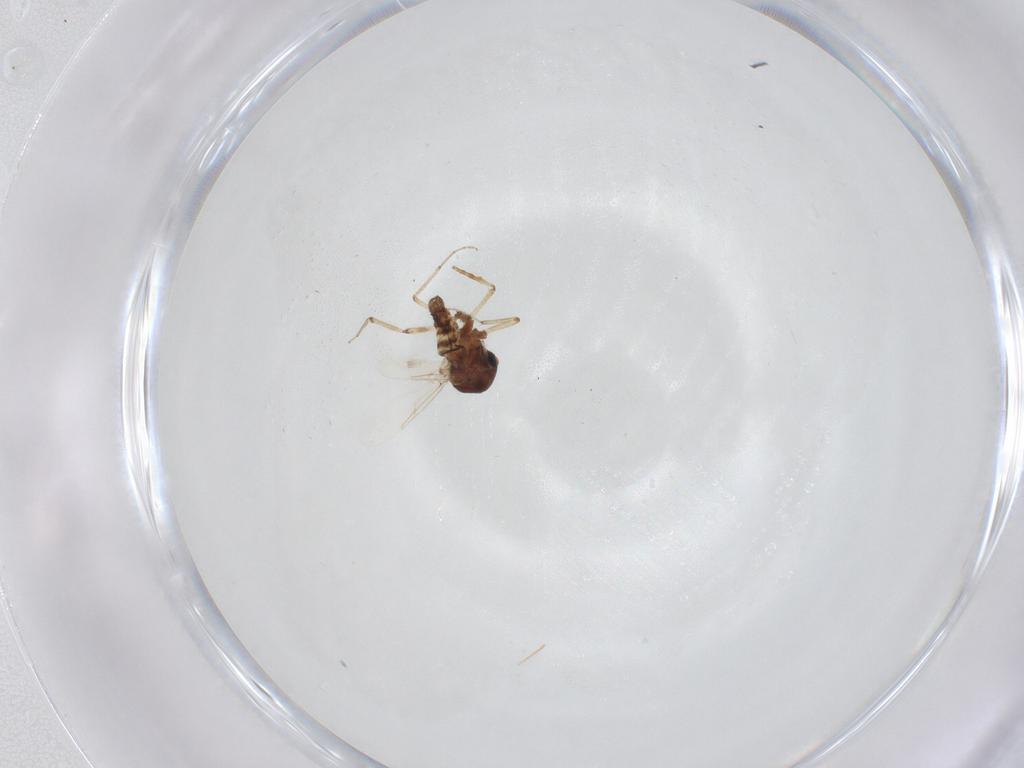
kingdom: Animalia
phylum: Arthropoda
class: Insecta
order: Diptera
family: Ceratopogonidae
